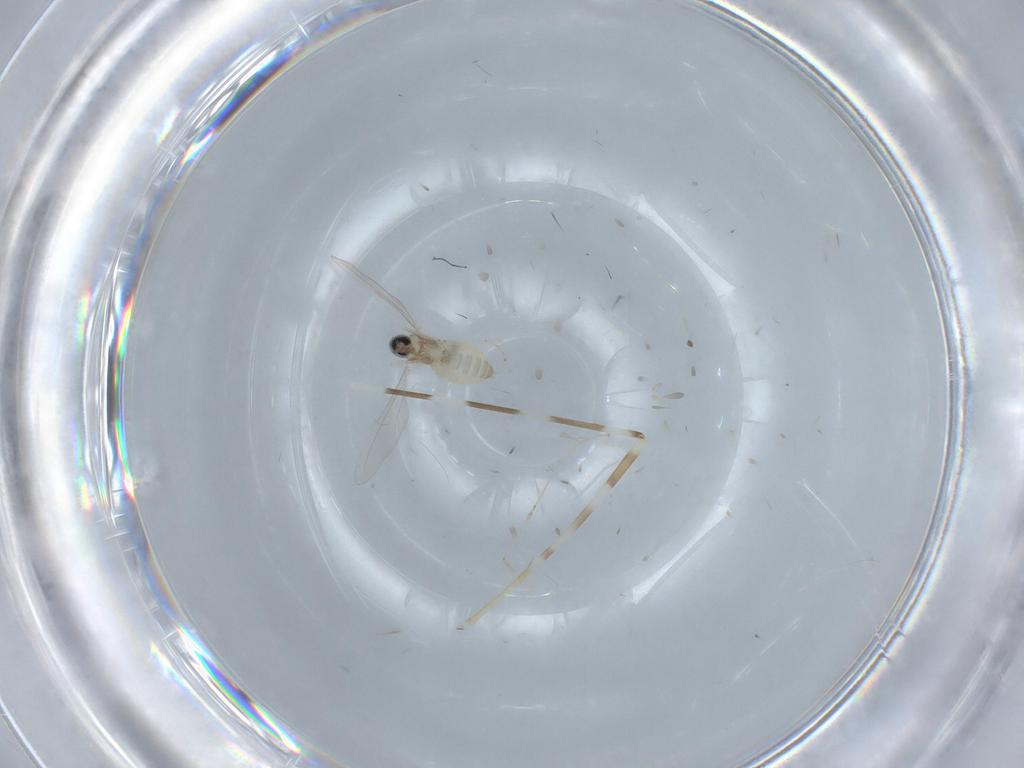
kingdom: Animalia
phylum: Arthropoda
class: Insecta
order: Diptera
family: Cecidomyiidae
